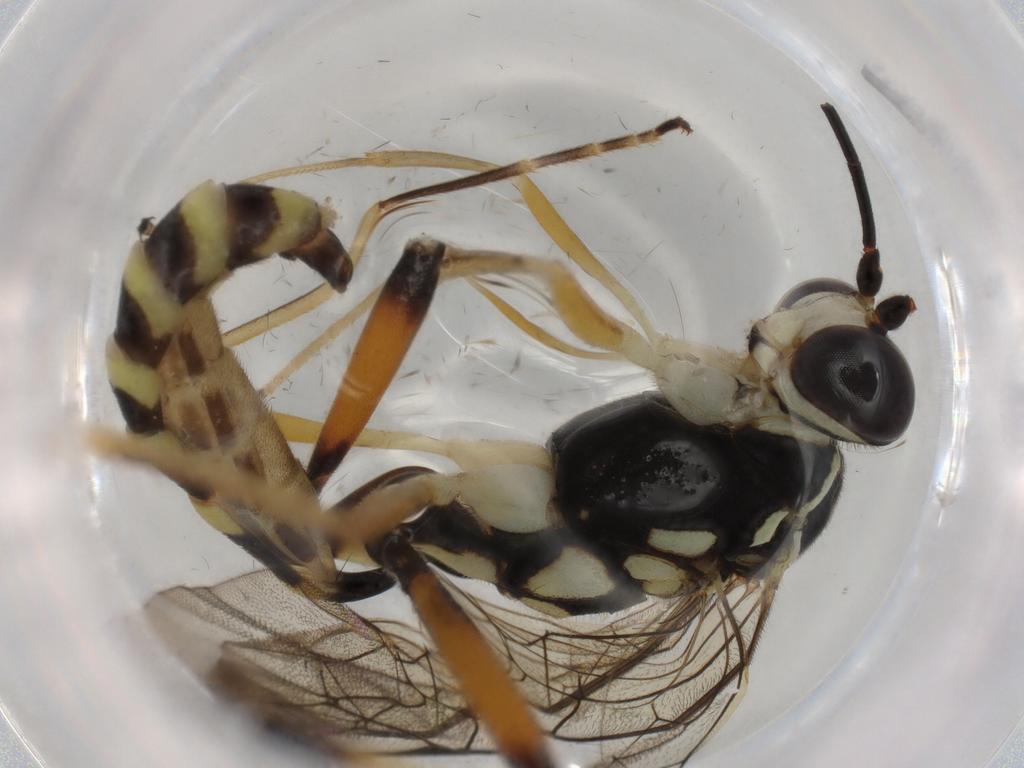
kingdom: Animalia
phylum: Arthropoda
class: Insecta
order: Hymenoptera
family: Platygastridae
